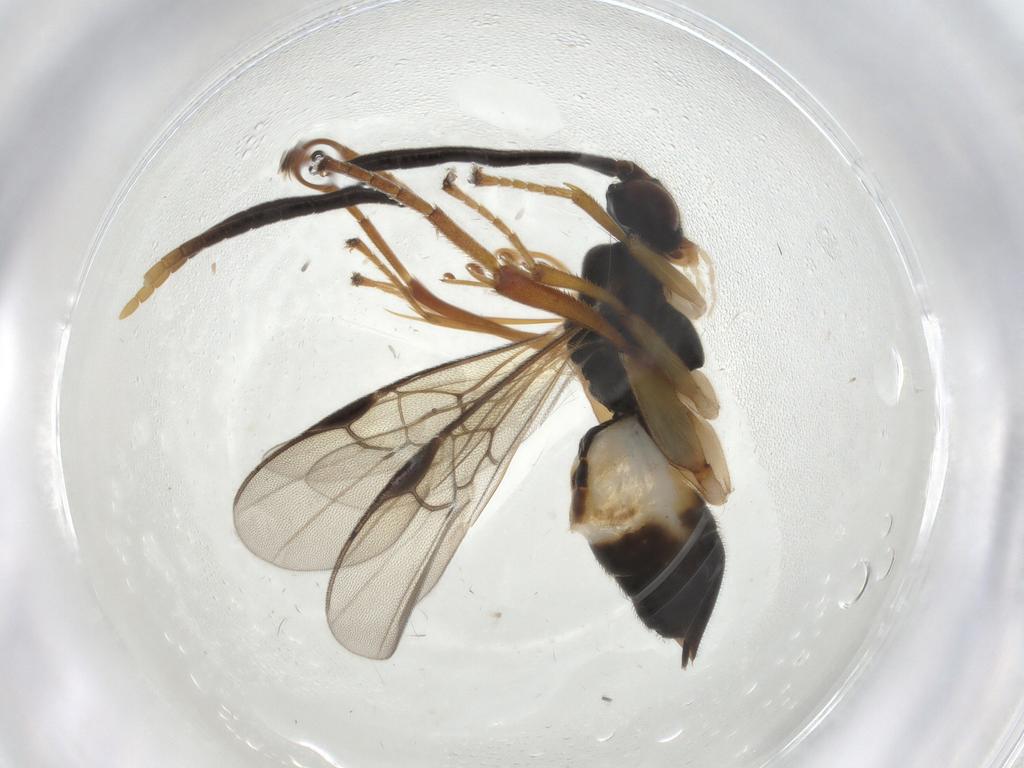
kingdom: Animalia
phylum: Arthropoda
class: Insecta
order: Hymenoptera
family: Braconidae
